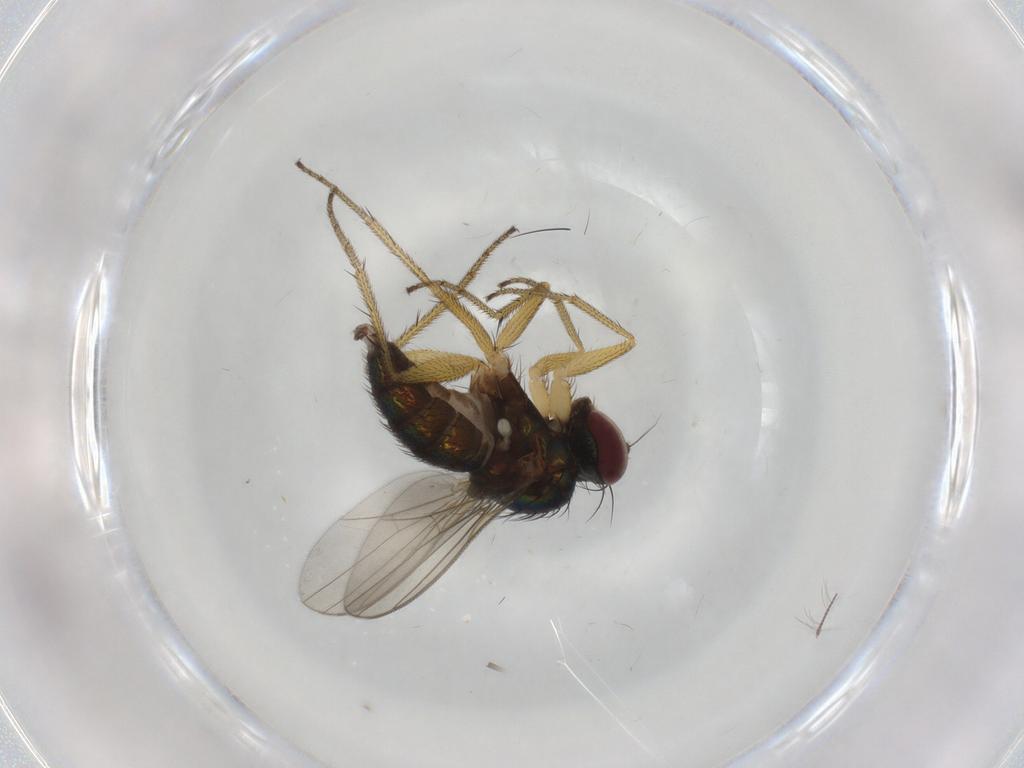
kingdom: Animalia
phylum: Arthropoda
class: Insecta
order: Diptera
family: Dolichopodidae
